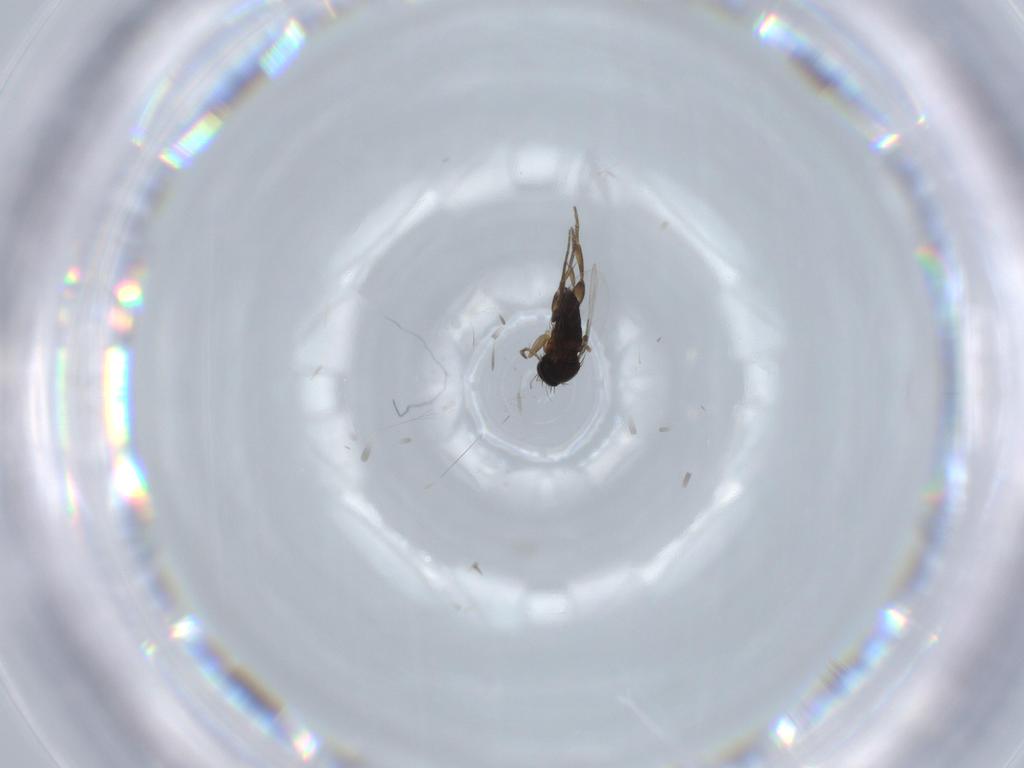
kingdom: Animalia
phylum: Arthropoda
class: Insecta
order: Diptera
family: Phoridae
